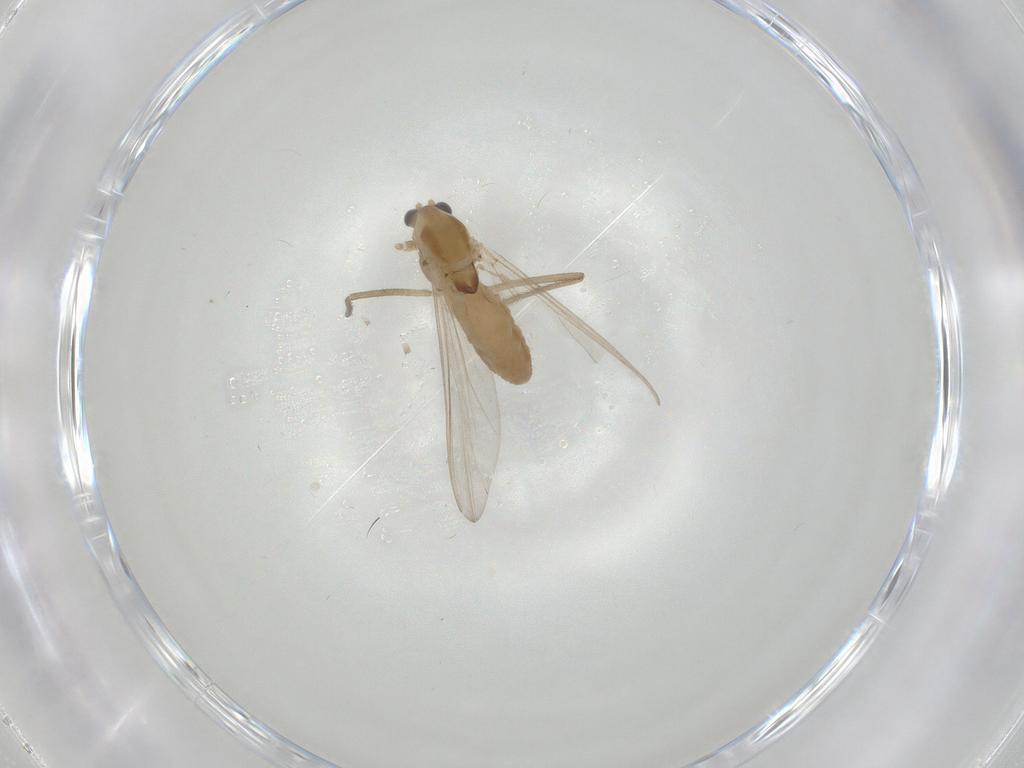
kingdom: Animalia
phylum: Arthropoda
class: Insecta
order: Diptera
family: Chironomidae
